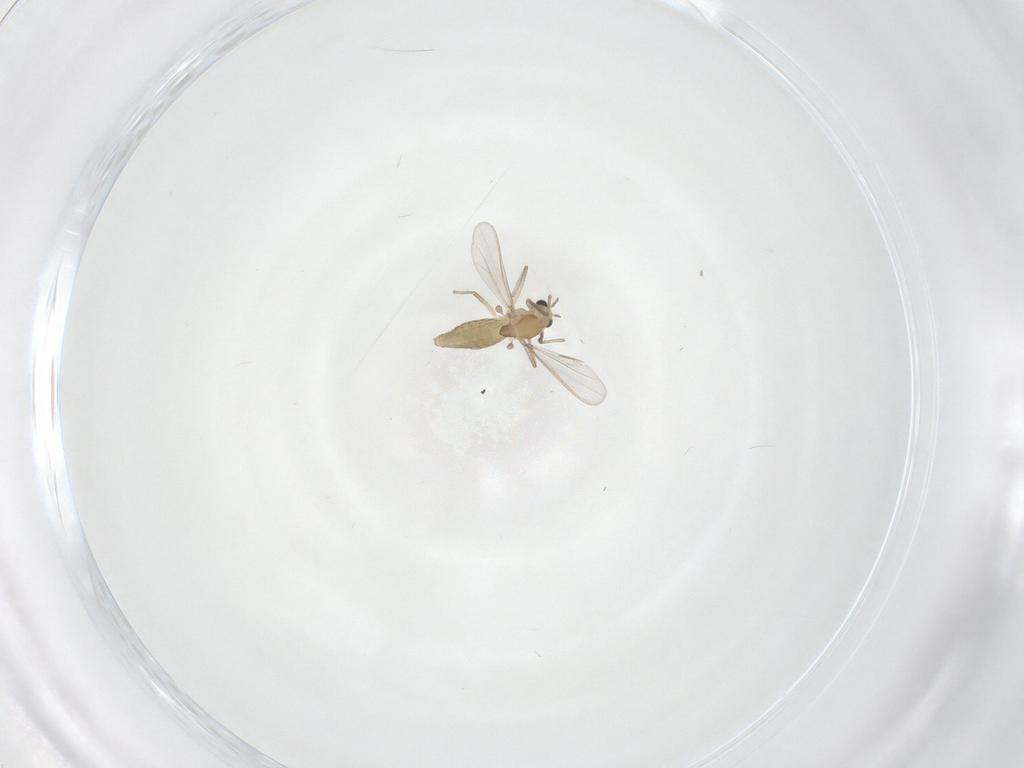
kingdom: Animalia
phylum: Arthropoda
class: Insecta
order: Diptera
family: Chironomidae
